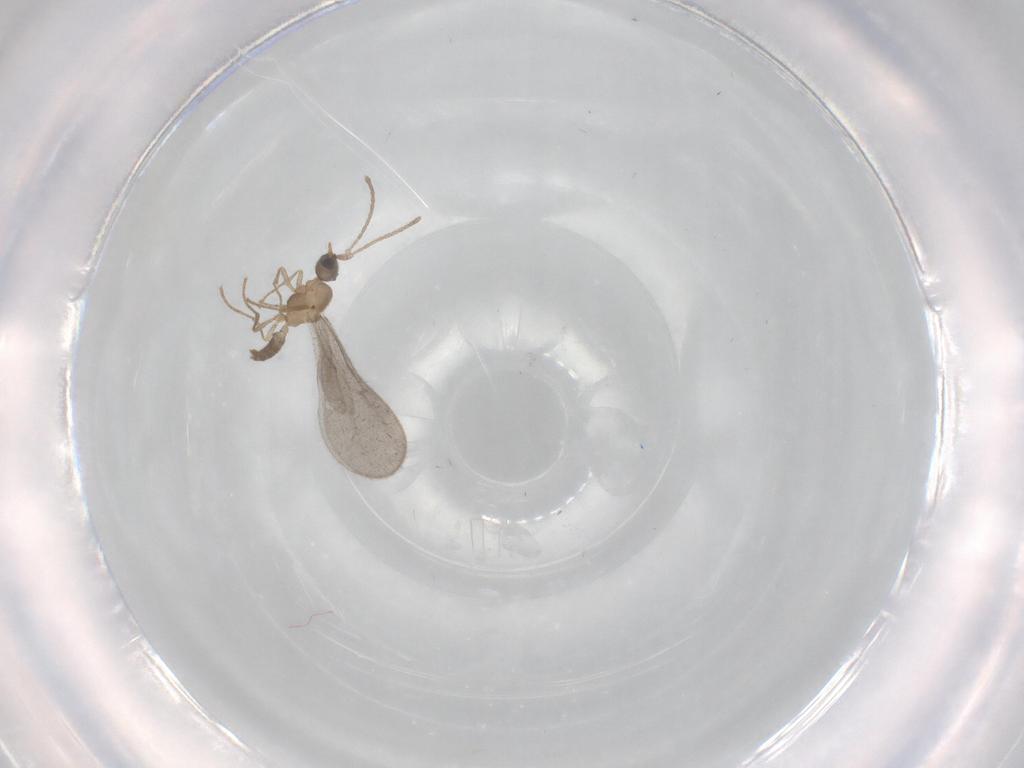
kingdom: Animalia
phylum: Arthropoda
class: Insecta
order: Hymenoptera
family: Formicidae
